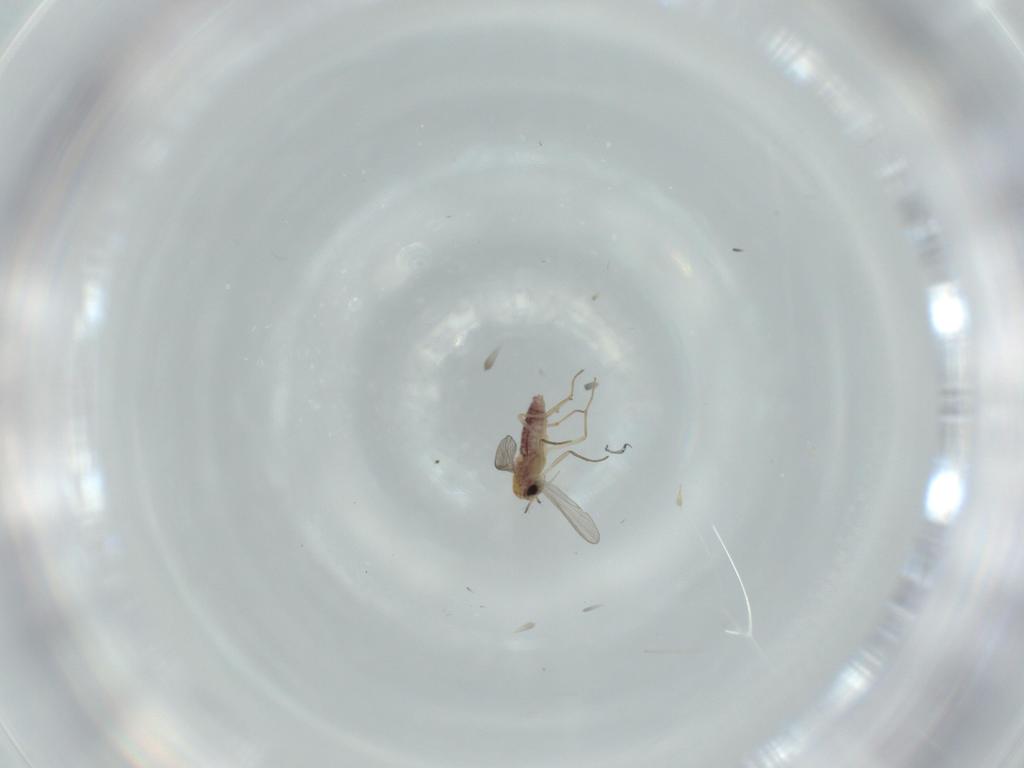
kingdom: Animalia
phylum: Arthropoda
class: Insecta
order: Diptera
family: Chironomidae
